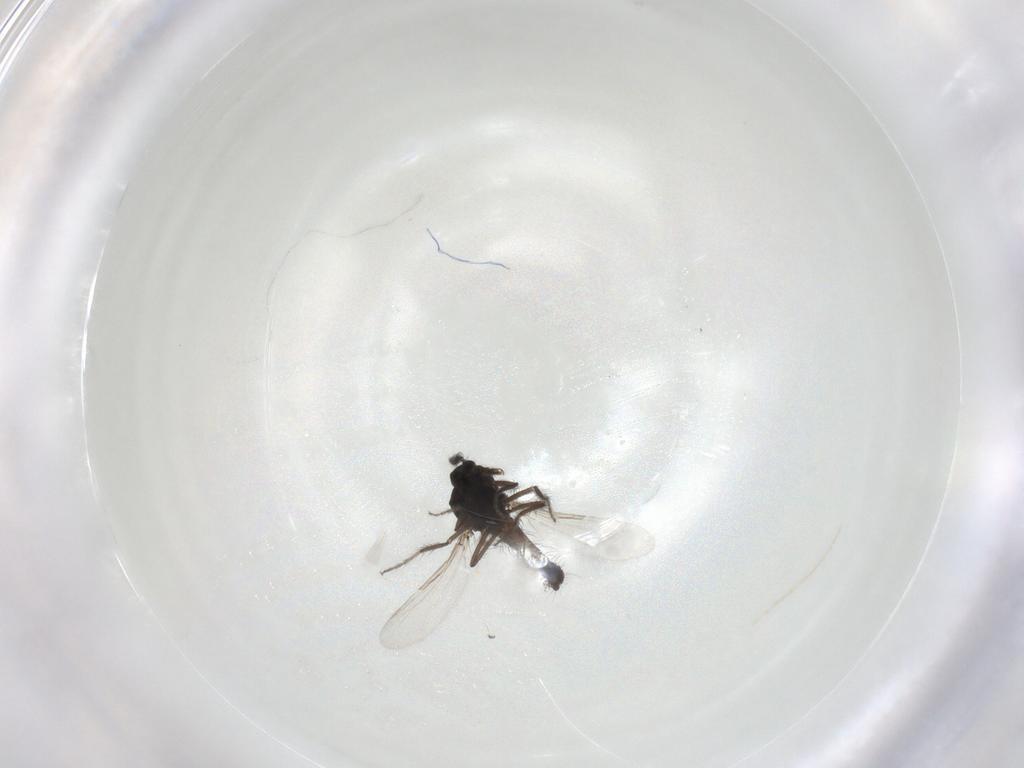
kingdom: Animalia
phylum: Arthropoda
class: Insecta
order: Diptera
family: Ceratopogonidae
